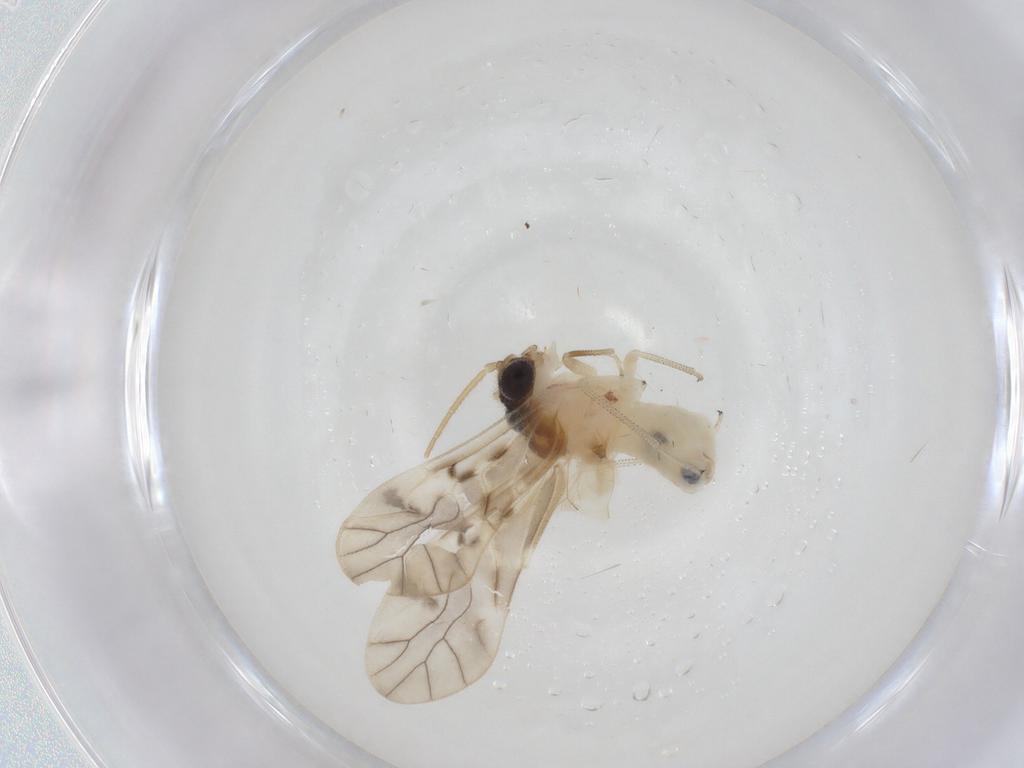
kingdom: Animalia
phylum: Arthropoda
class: Insecta
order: Psocodea
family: Caeciliusidae
